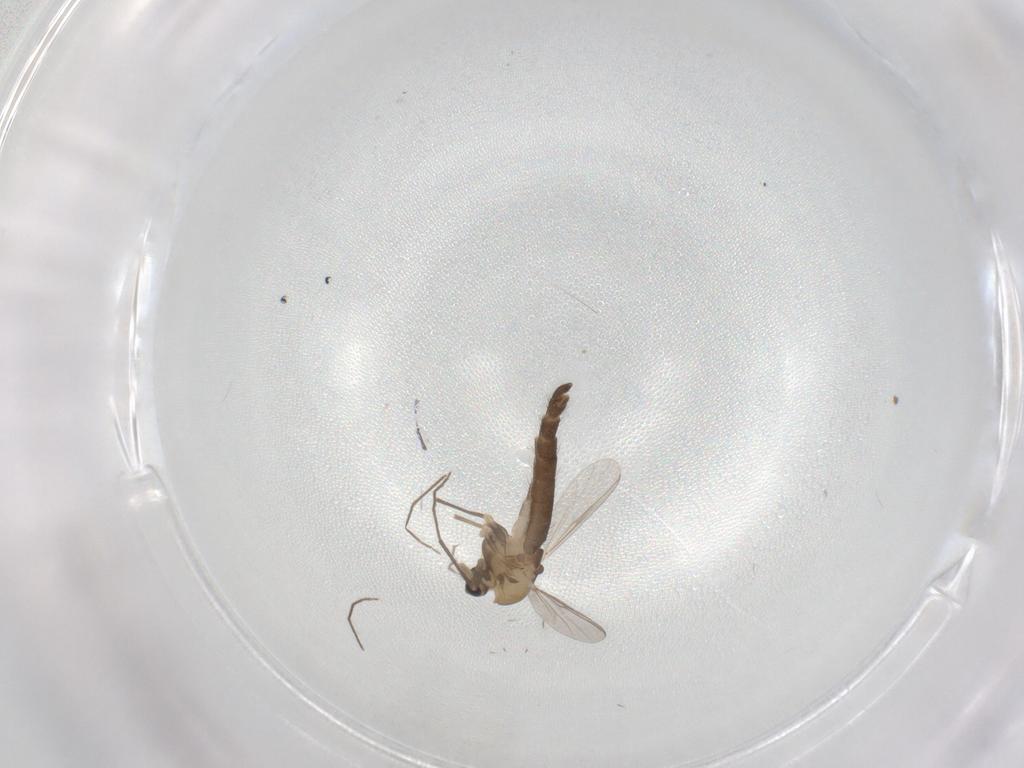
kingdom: Animalia
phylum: Arthropoda
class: Insecta
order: Diptera
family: Chironomidae
